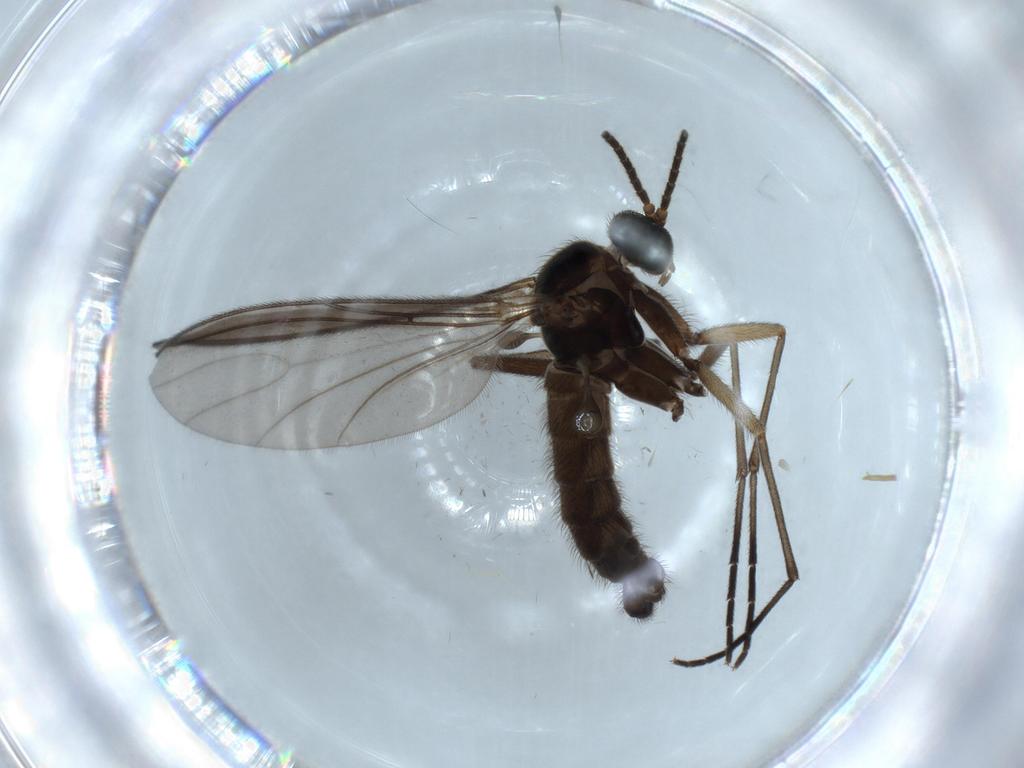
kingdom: Animalia
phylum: Arthropoda
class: Insecta
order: Diptera
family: Sciaridae
